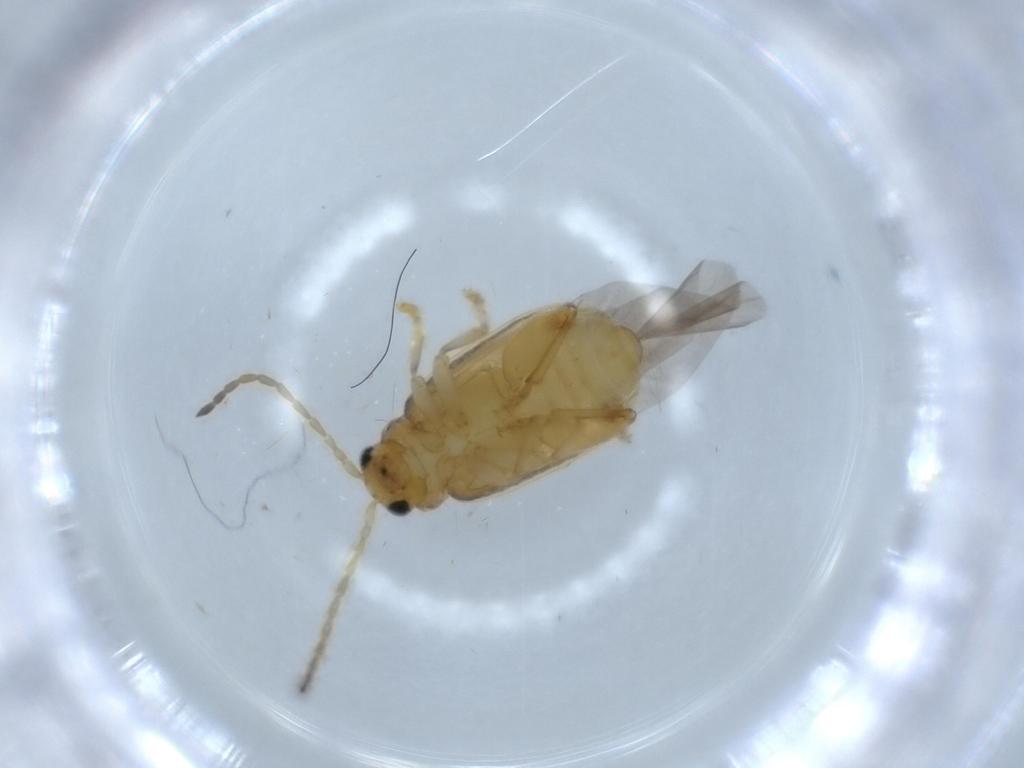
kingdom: Animalia
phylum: Arthropoda
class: Insecta
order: Coleoptera
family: Chrysomelidae
